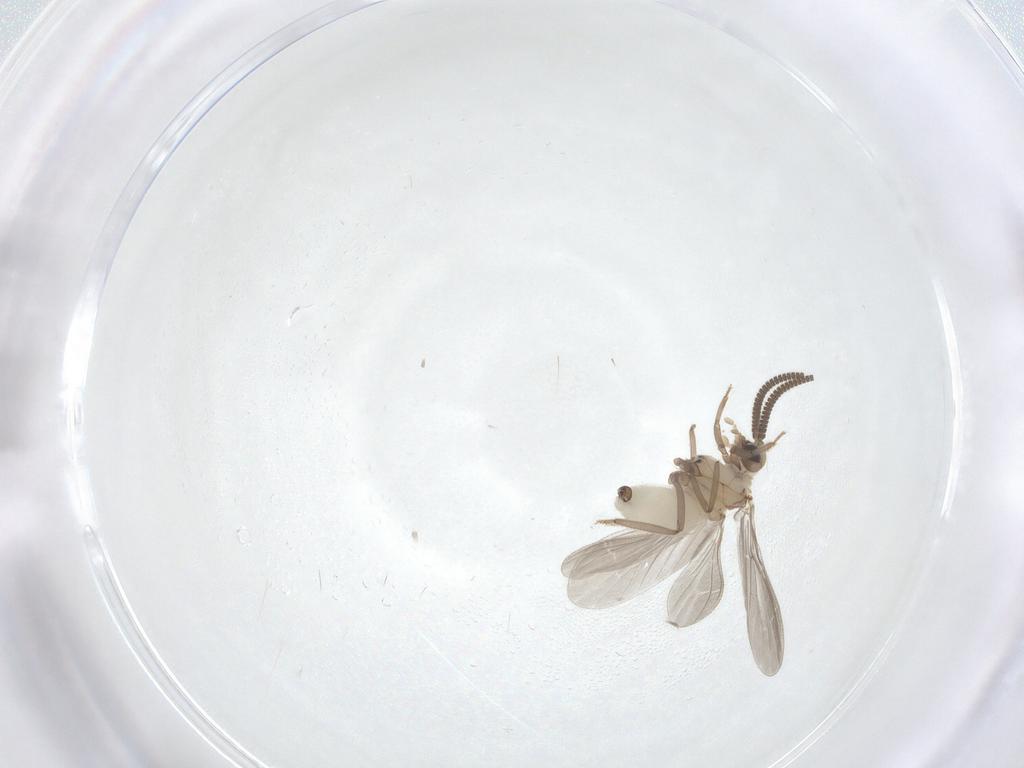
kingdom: Animalia
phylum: Arthropoda
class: Insecta
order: Neuroptera
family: Coniopterygidae
